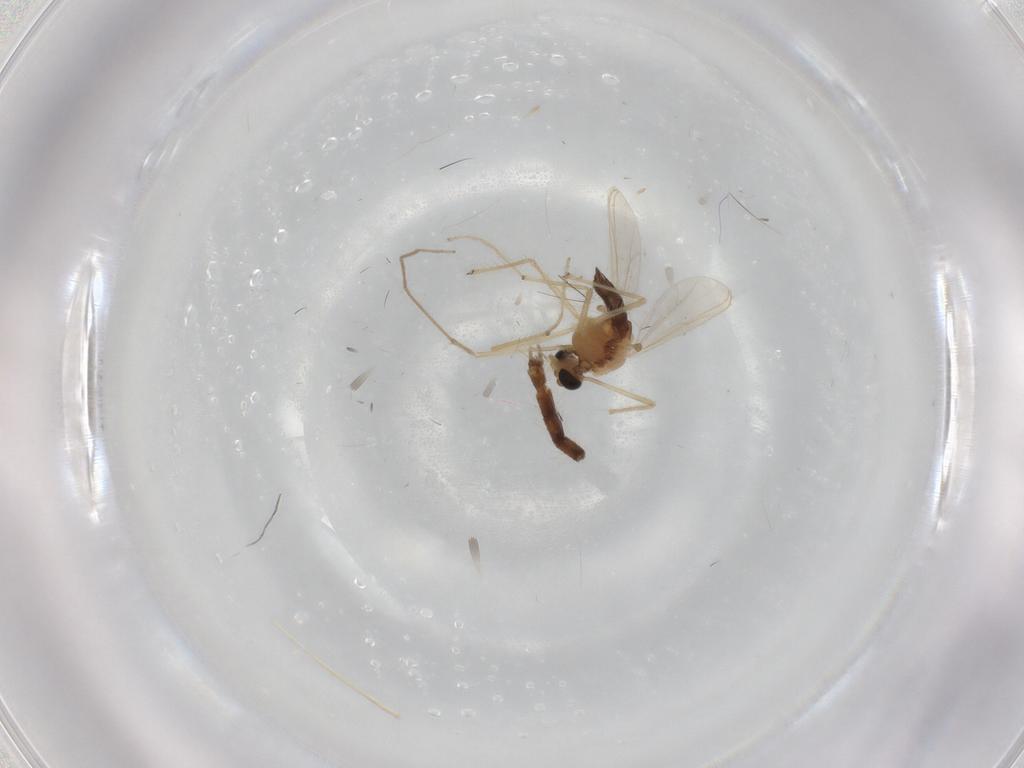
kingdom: Animalia
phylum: Arthropoda
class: Insecta
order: Diptera
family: Chironomidae
